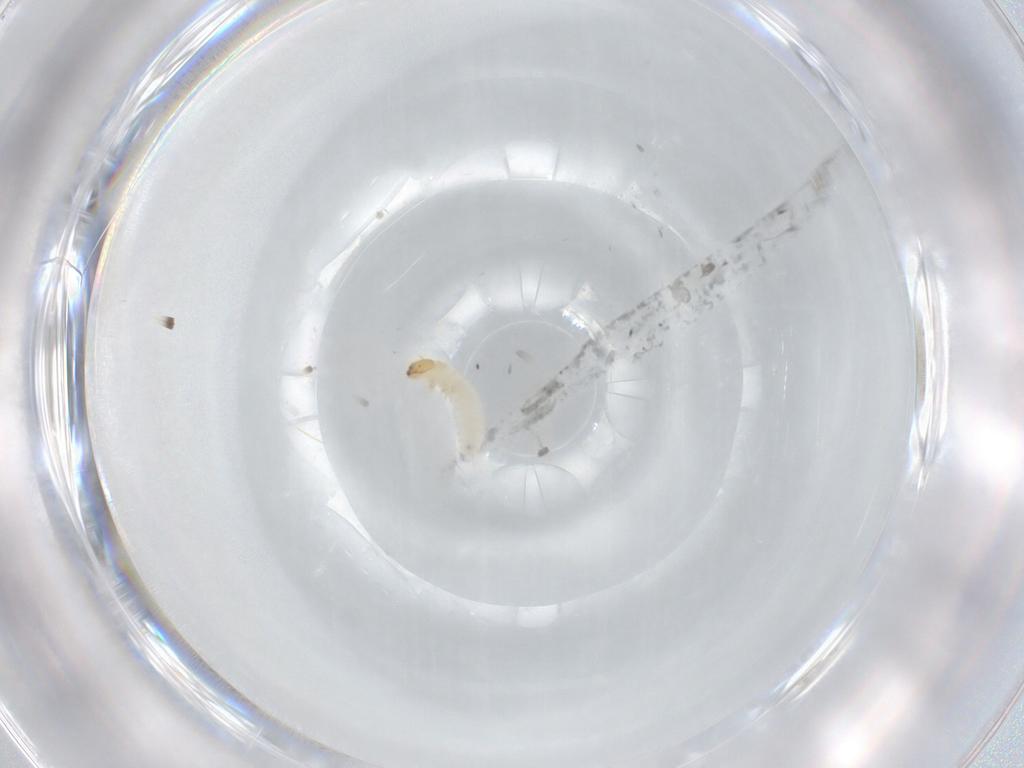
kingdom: Animalia
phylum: Arthropoda
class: Insecta
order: Coleoptera
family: Chrysomelidae
